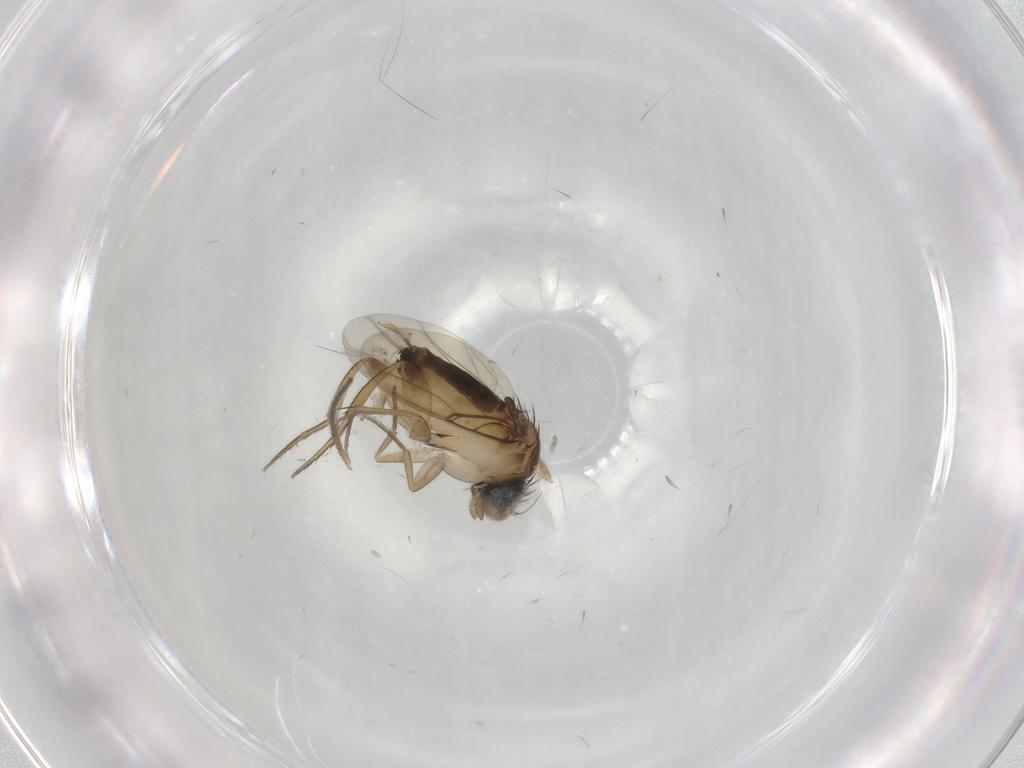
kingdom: Animalia
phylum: Arthropoda
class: Insecta
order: Diptera
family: Sciaridae
